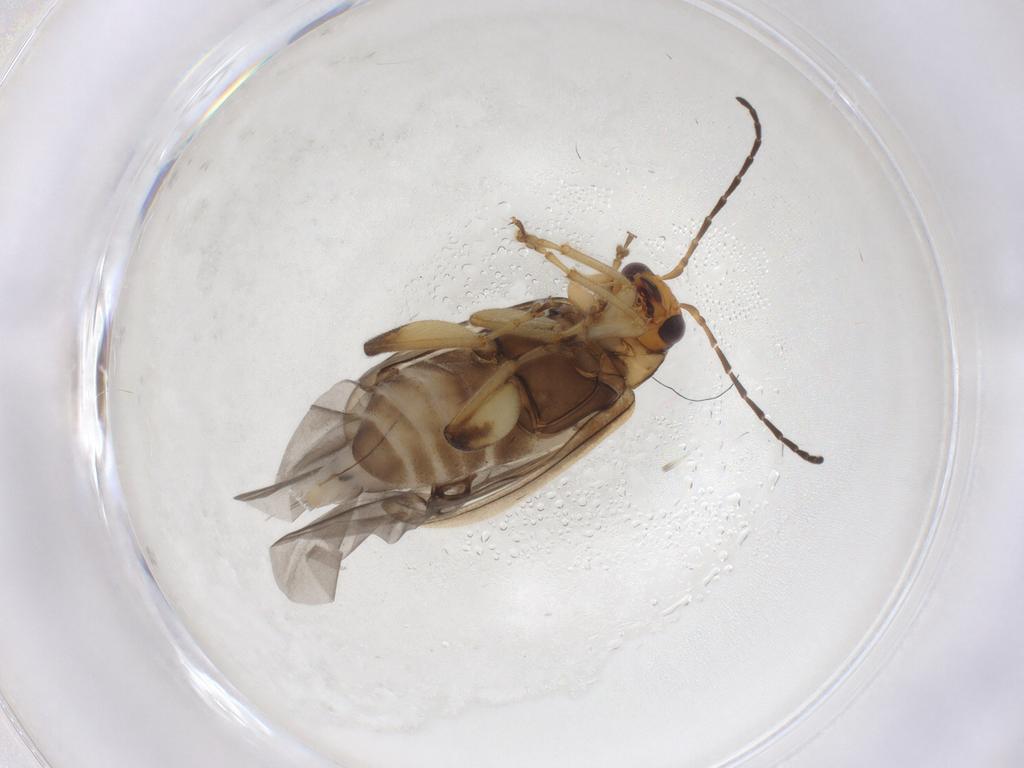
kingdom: Animalia
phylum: Arthropoda
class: Insecta
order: Coleoptera
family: Chrysomelidae
